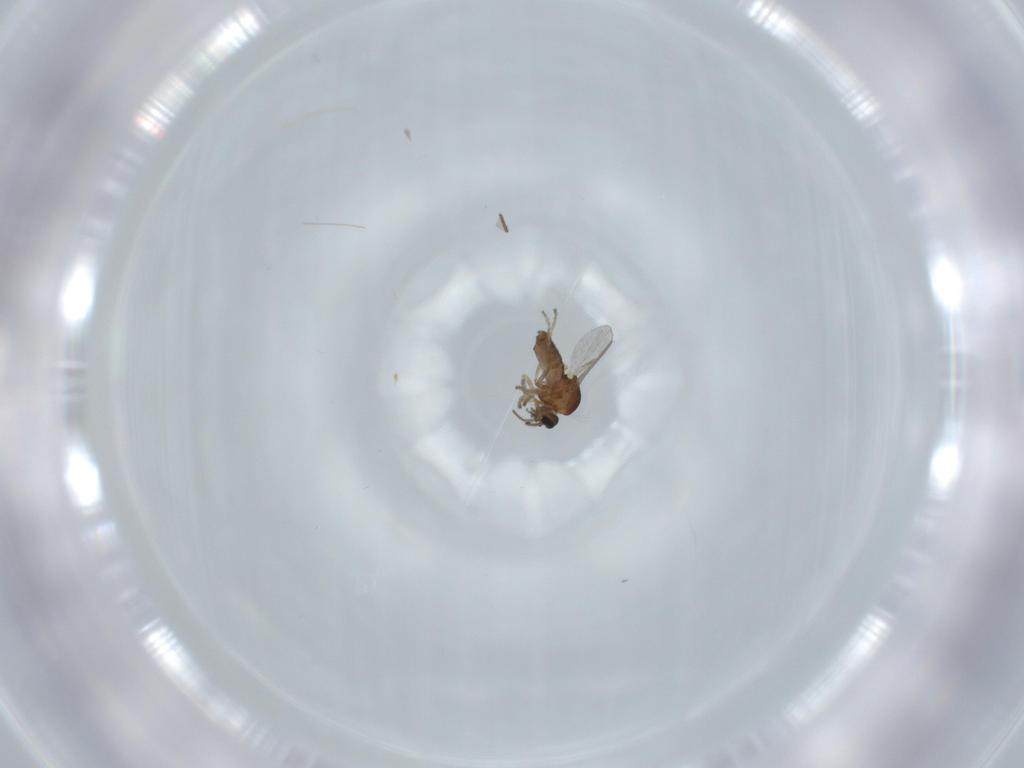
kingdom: Animalia
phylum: Arthropoda
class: Insecta
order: Diptera
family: Ceratopogonidae
